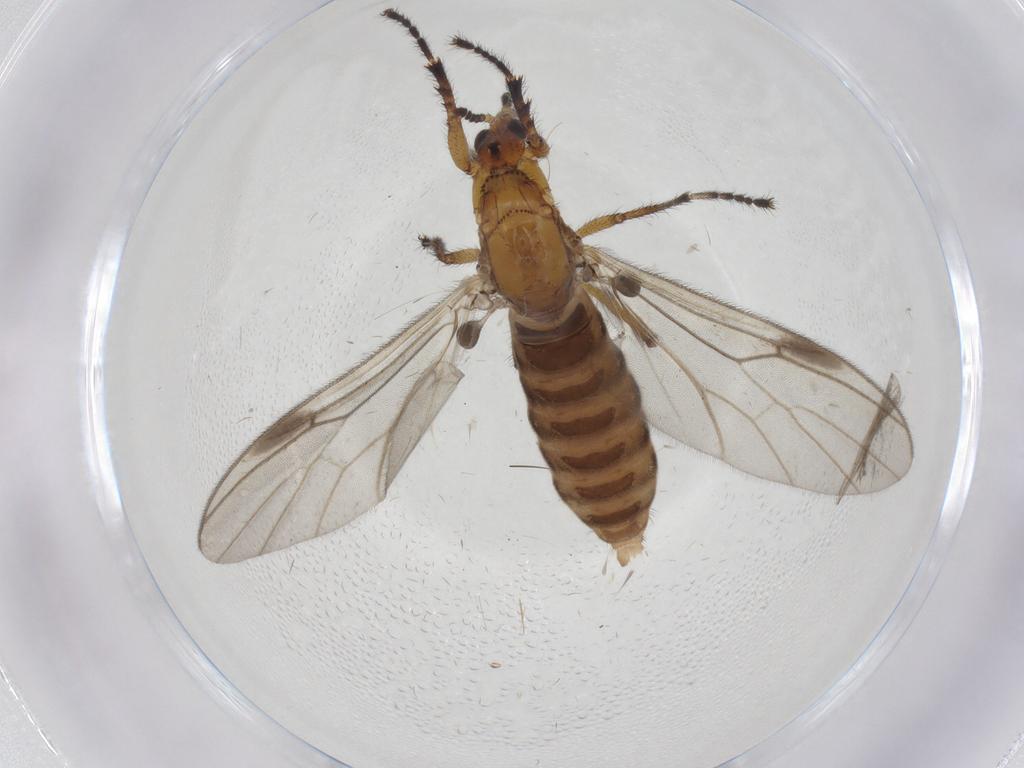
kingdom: Animalia
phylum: Arthropoda
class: Insecta
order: Diptera
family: Bibionidae
